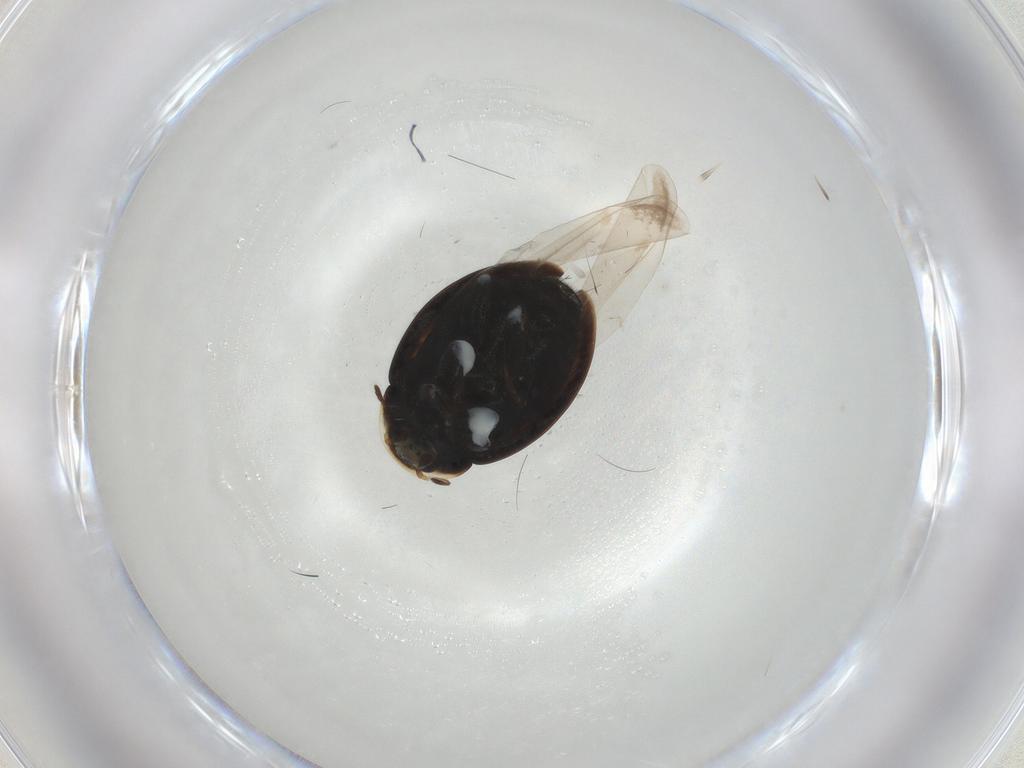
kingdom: Animalia
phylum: Arthropoda
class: Insecta
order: Coleoptera
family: Coccinellidae
